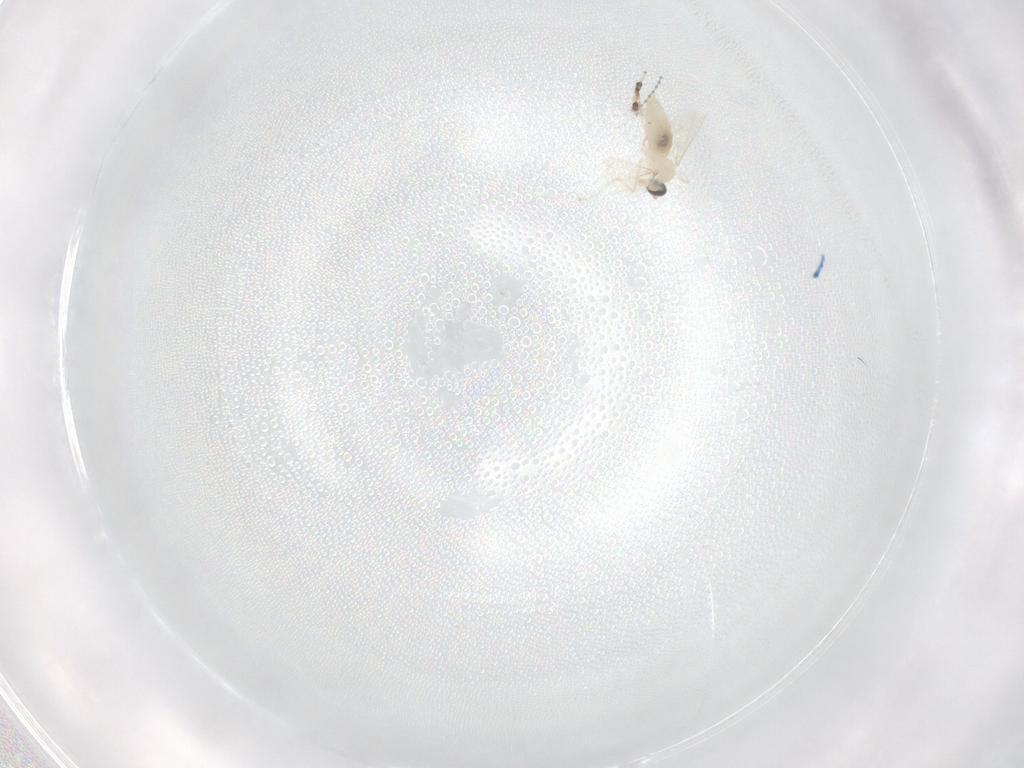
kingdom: Animalia
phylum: Arthropoda
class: Insecta
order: Diptera
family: Cecidomyiidae
